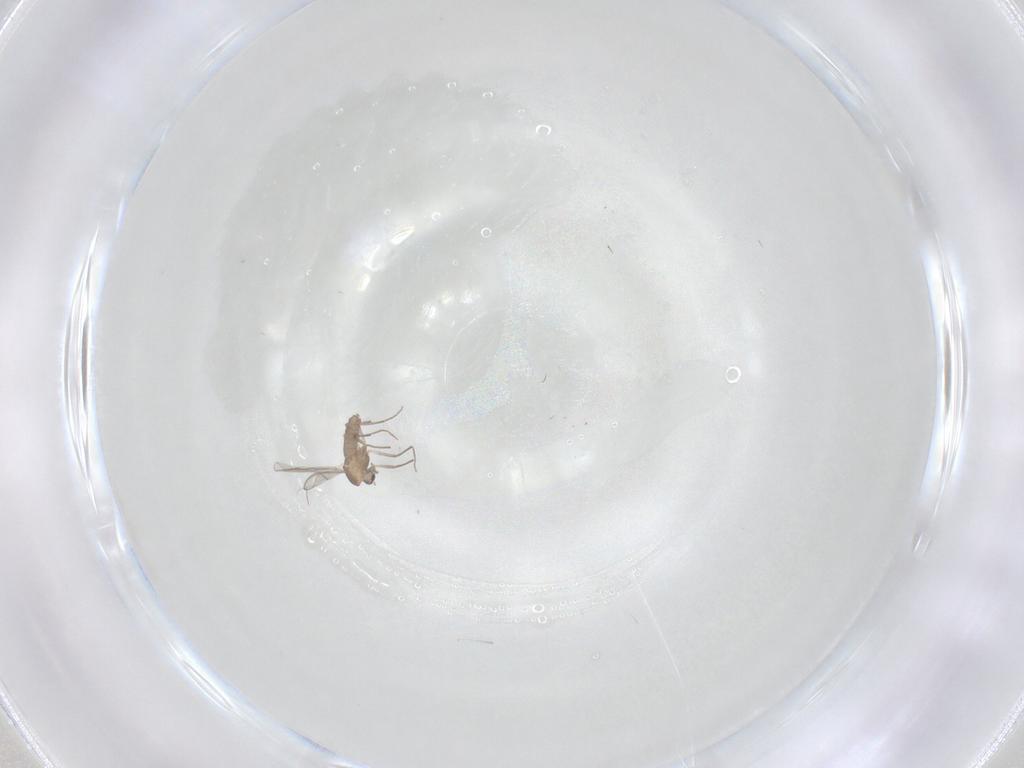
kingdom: Animalia
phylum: Arthropoda
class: Insecta
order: Diptera
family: Chironomidae
